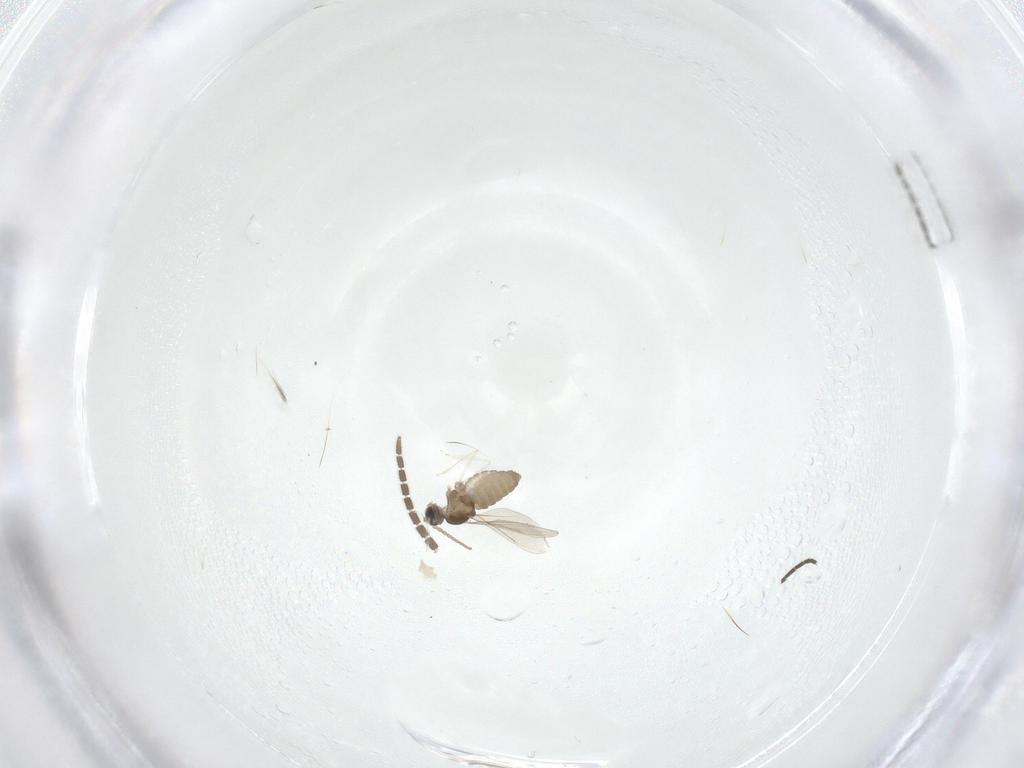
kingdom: Animalia
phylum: Arthropoda
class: Insecta
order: Diptera
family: Sciaridae
